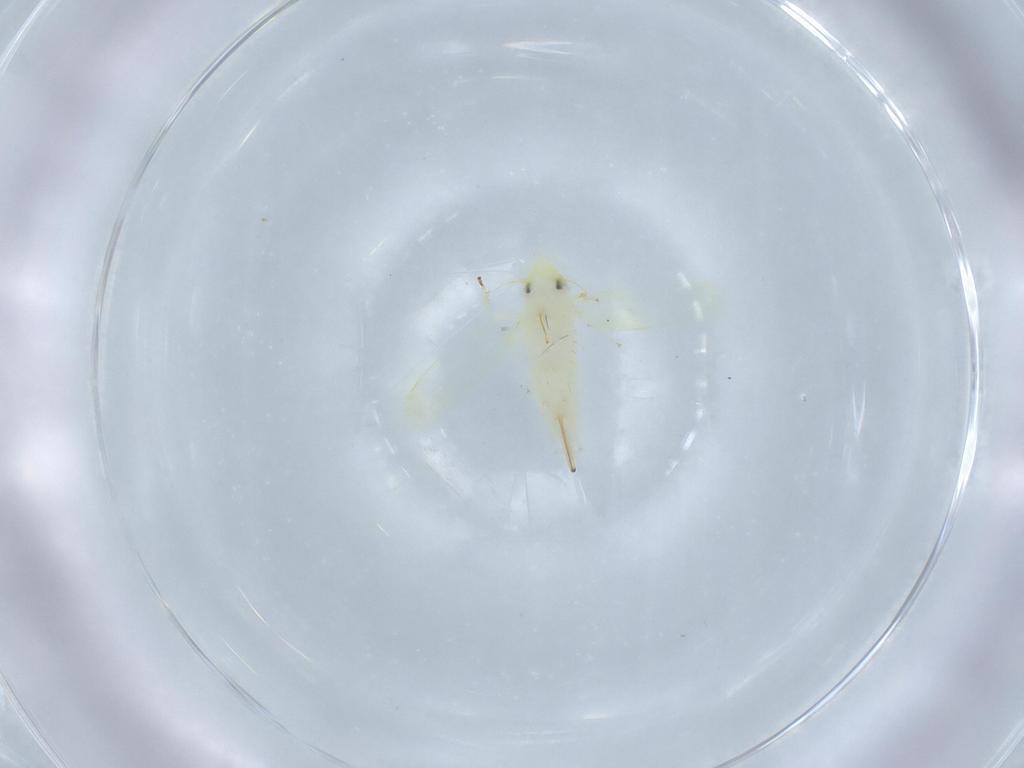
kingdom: Animalia
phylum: Arthropoda
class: Insecta
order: Hemiptera
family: Cicadellidae
